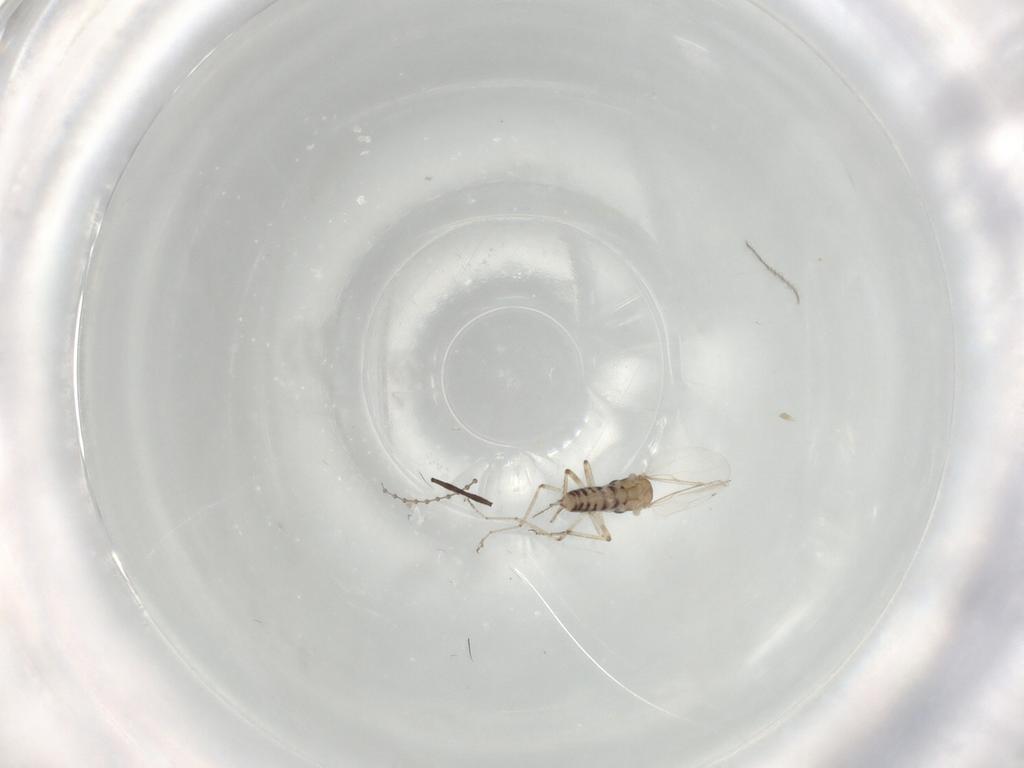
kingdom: Animalia
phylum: Arthropoda
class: Insecta
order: Diptera
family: Ceratopogonidae
